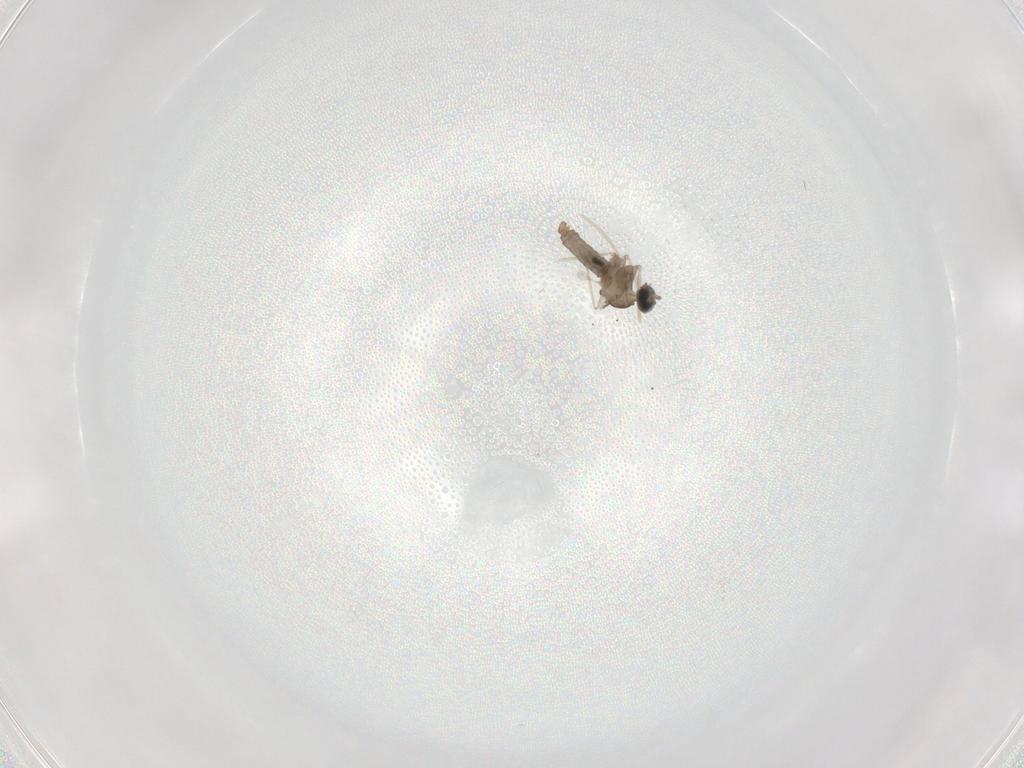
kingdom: Animalia
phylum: Arthropoda
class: Insecta
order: Diptera
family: Cecidomyiidae
